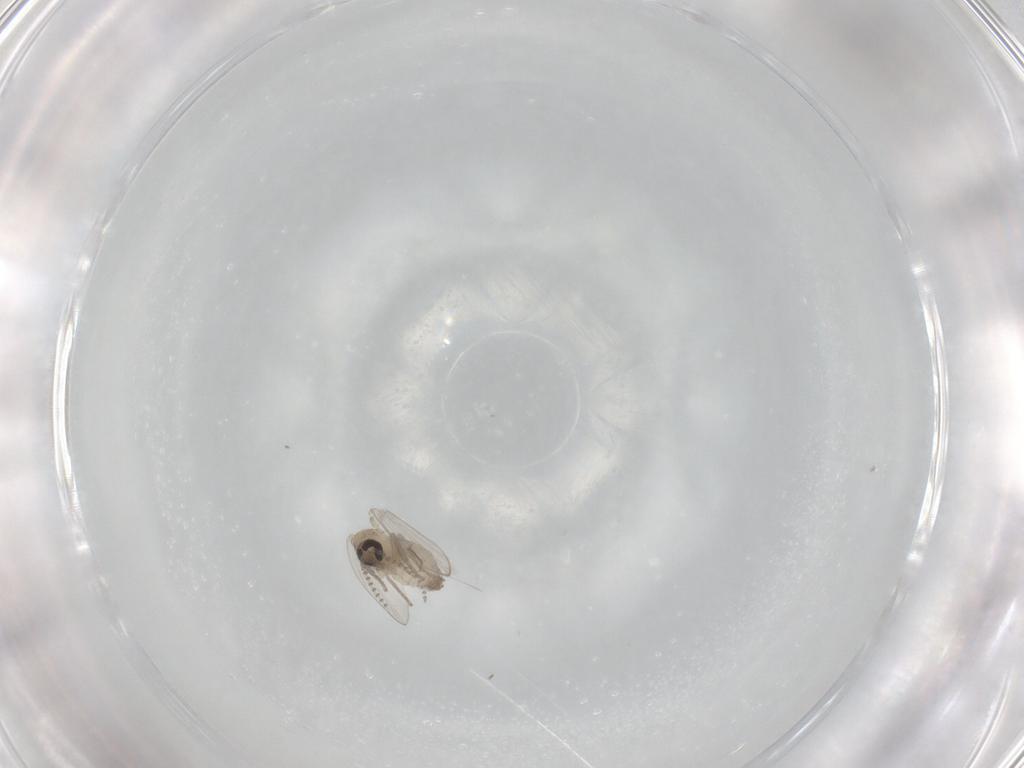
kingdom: Animalia
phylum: Arthropoda
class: Insecta
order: Diptera
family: Psychodidae
